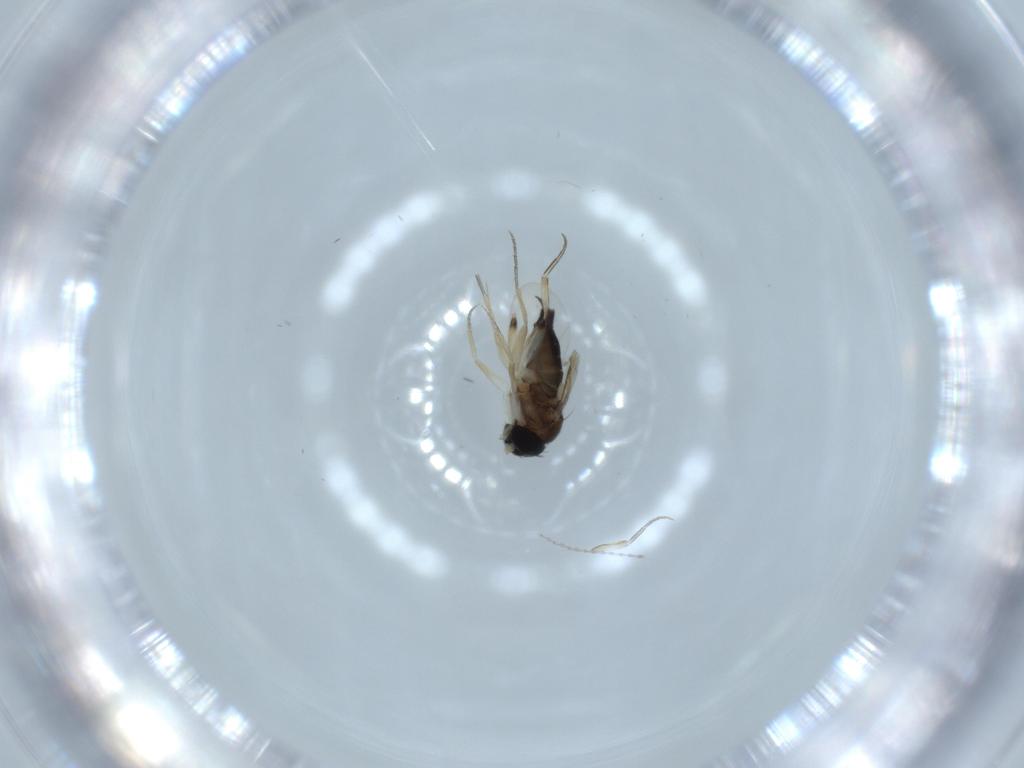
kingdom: Animalia
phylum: Arthropoda
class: Insecta
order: Diptera
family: Phoridae
